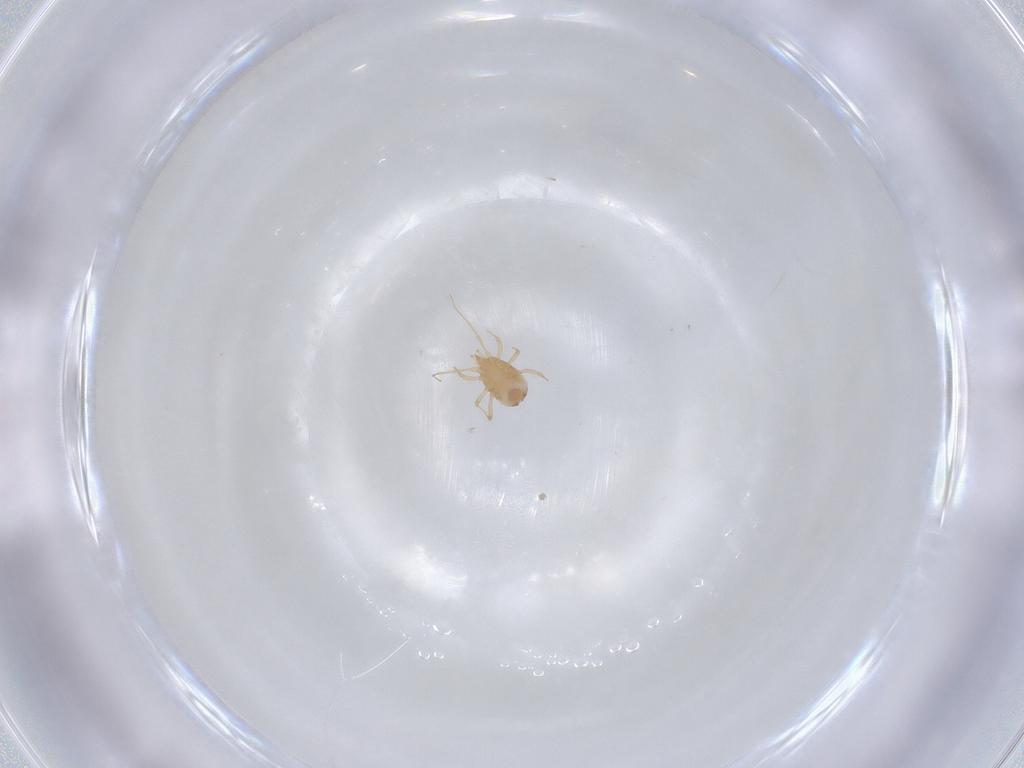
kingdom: Animalia
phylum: Arthropoda
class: Arachnida
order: Mesostigmata
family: Blattisociidae
